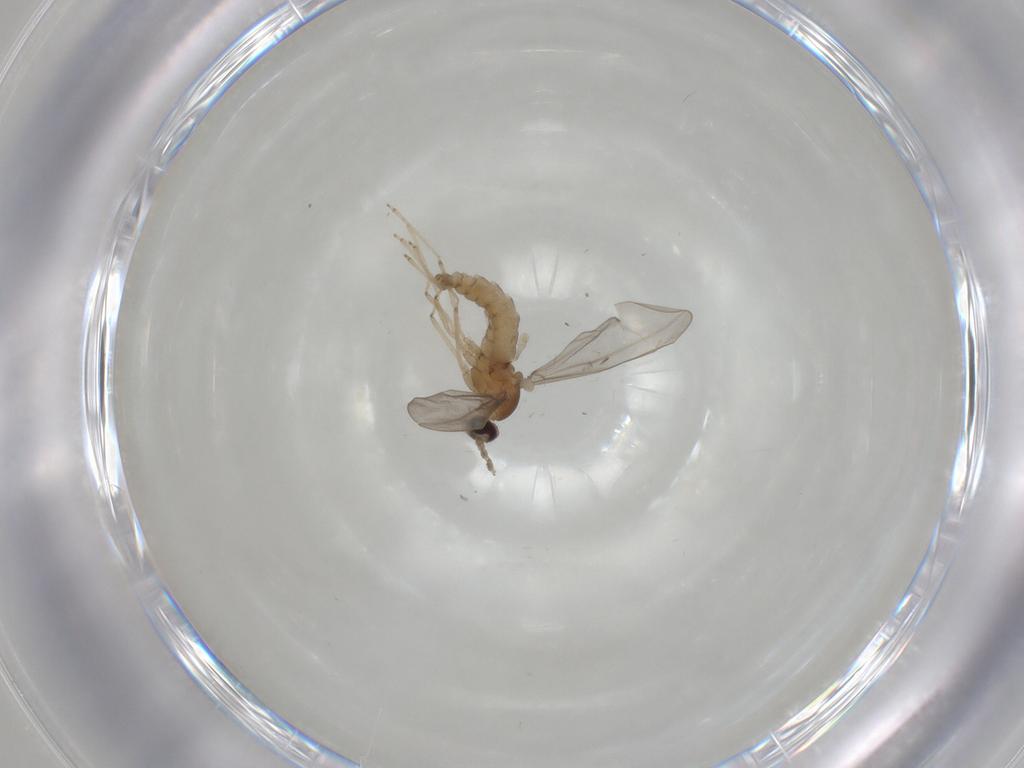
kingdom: Animalia
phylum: Arthropoda
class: Insecta
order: Diptera
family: Cecidomyiidae
